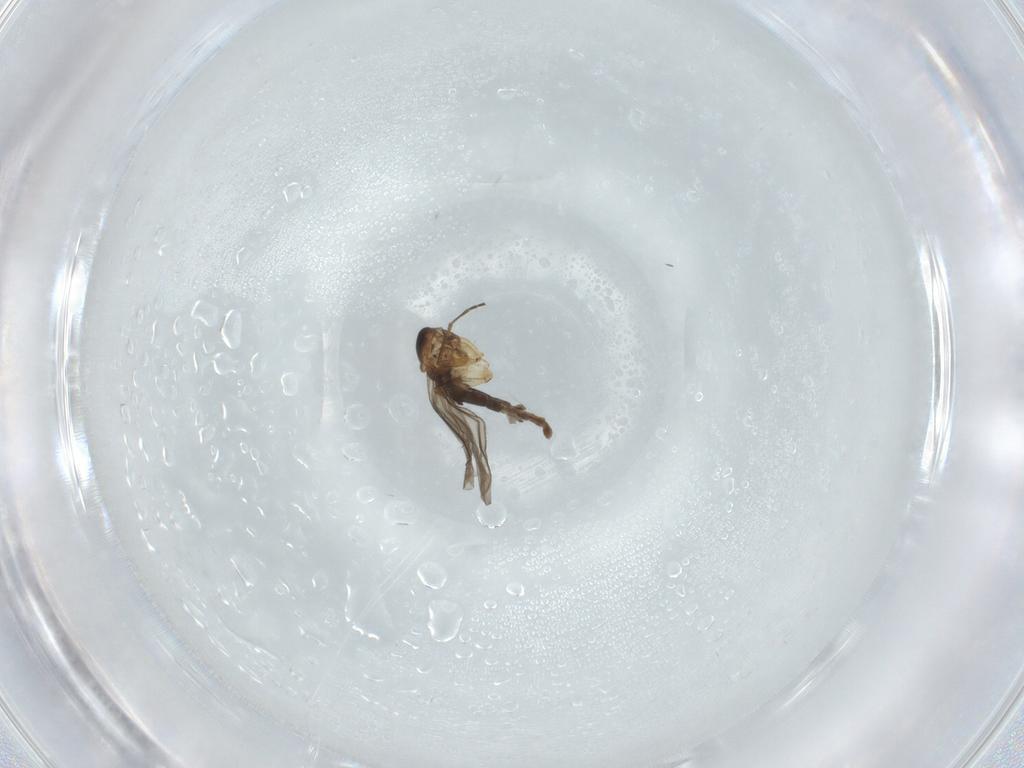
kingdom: Animalia
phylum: Arthropoda
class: Insecta
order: Diptera
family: Sciaridae
